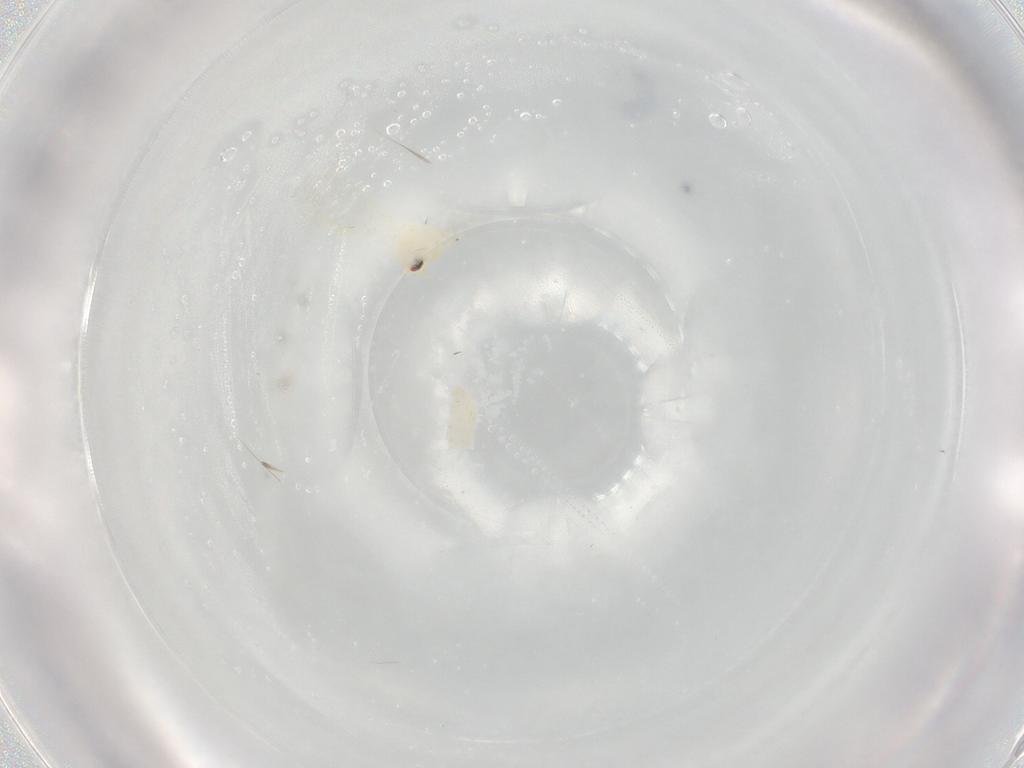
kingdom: Animalia
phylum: Arthropoda
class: Insecta
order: Hemiptera
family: Aleyrodidae
